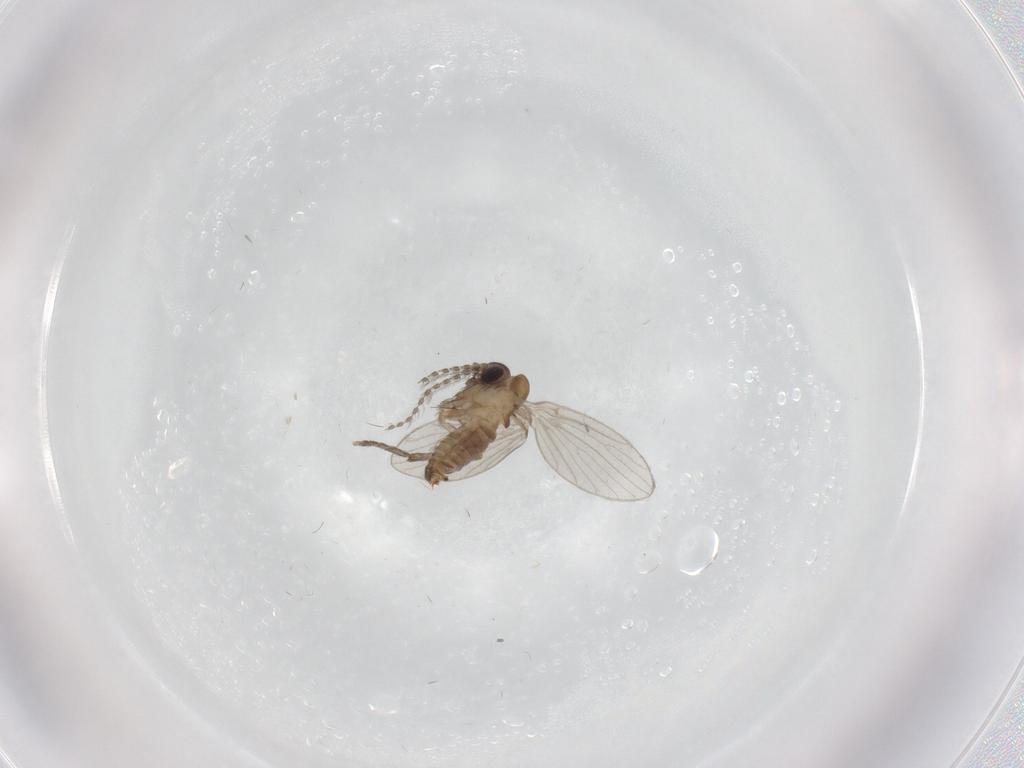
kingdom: Animalia
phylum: Arthropoda
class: Insecta
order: Diptera
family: Psychodidae
